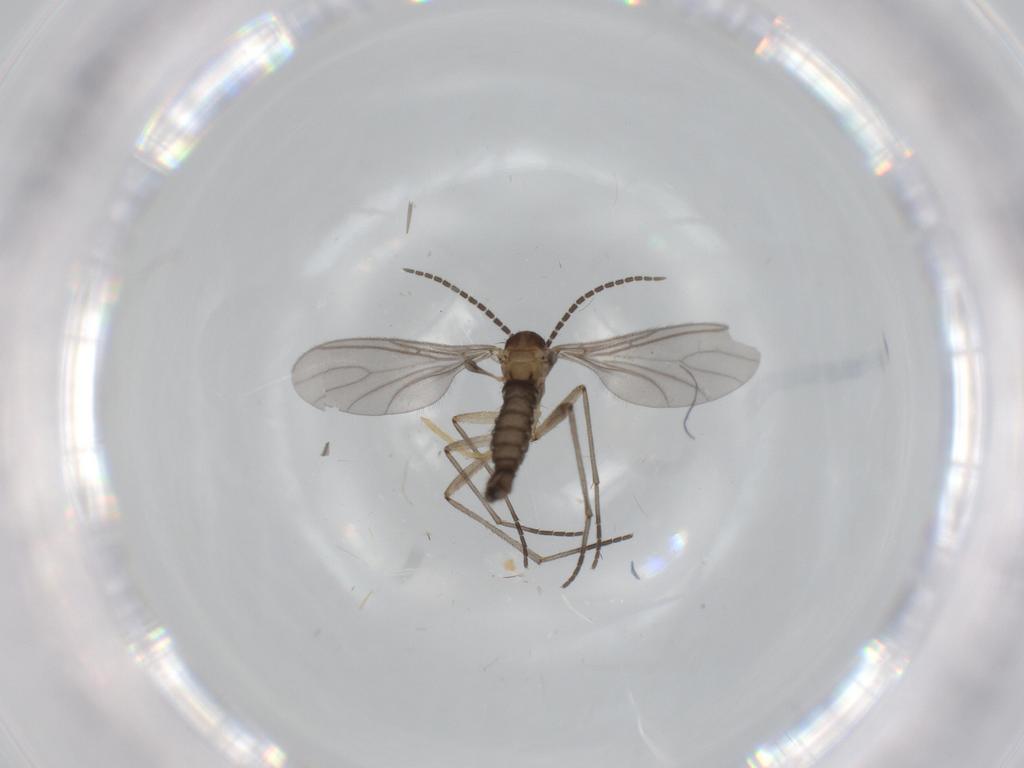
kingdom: Animalia
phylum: Arthropoda
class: Insecta
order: Diptera
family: Sciaridae
